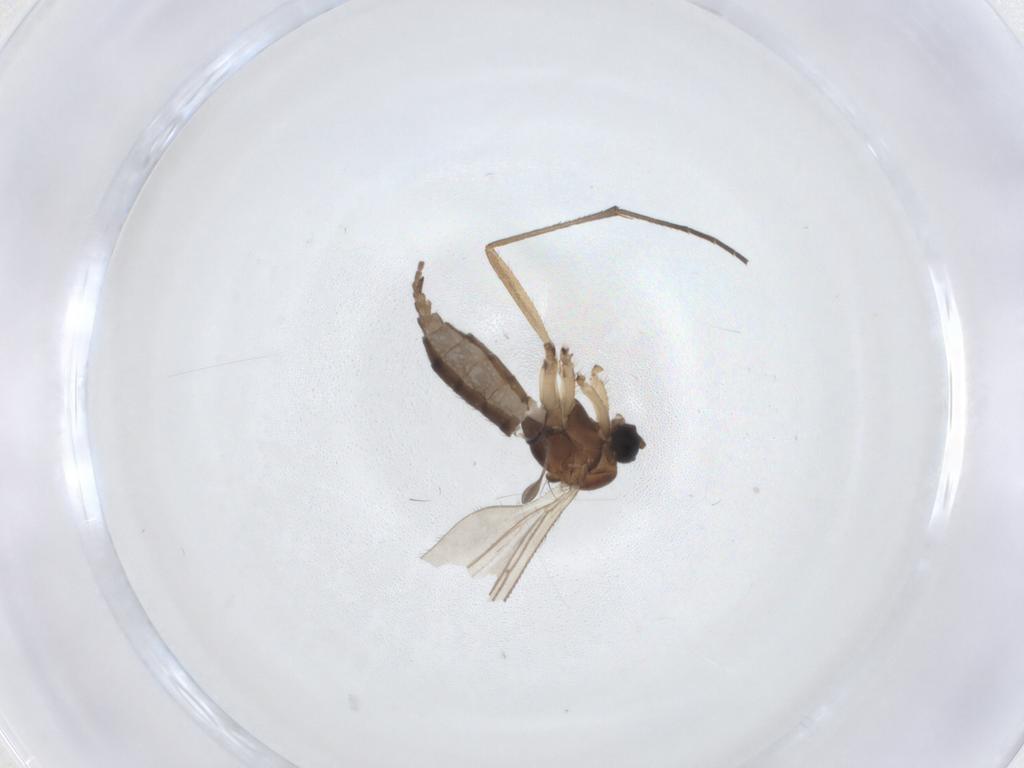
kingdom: Animalia
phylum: Arthropoda
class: Insecta
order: Diptera
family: Sciaridae
